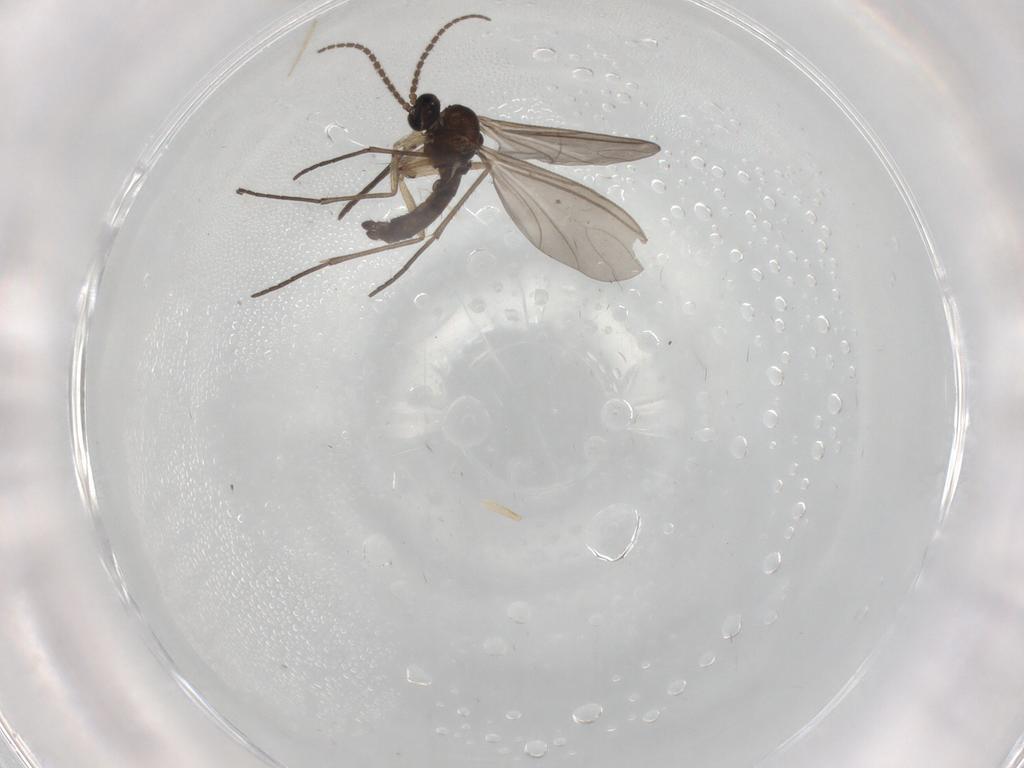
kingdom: Animalia
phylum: Arthropoda
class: Insecta
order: Diptera
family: Sciaridae
